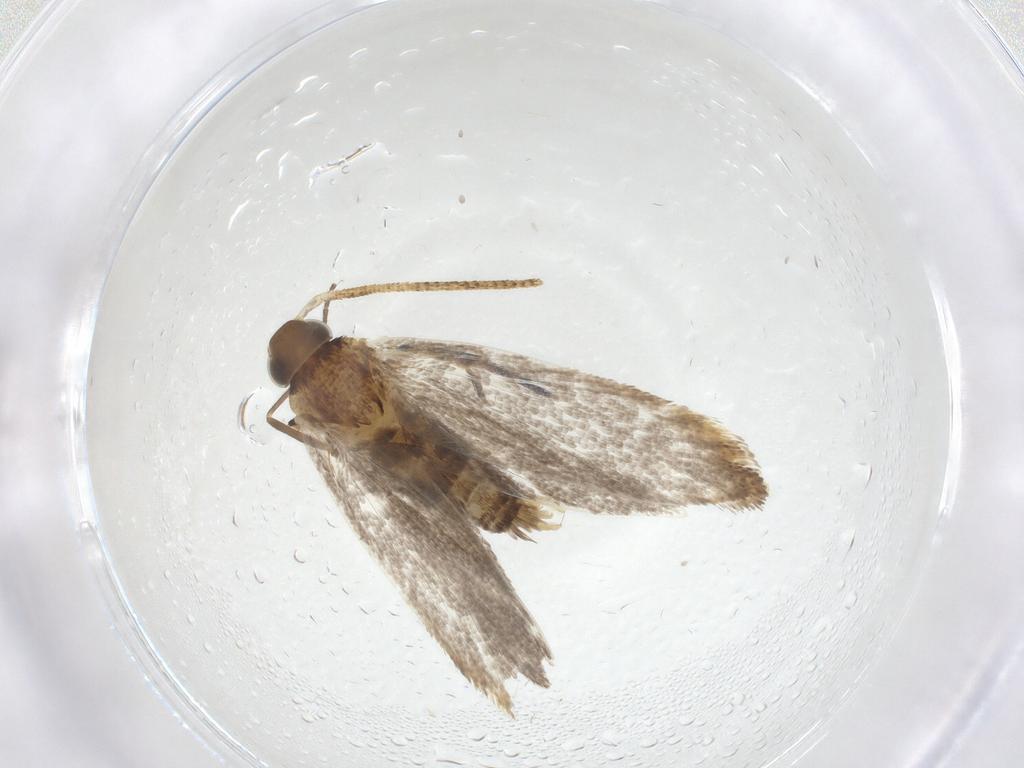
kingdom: Animalia
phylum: Arthropoda
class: Insecta
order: Lepidoptera
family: Oecophoridae
